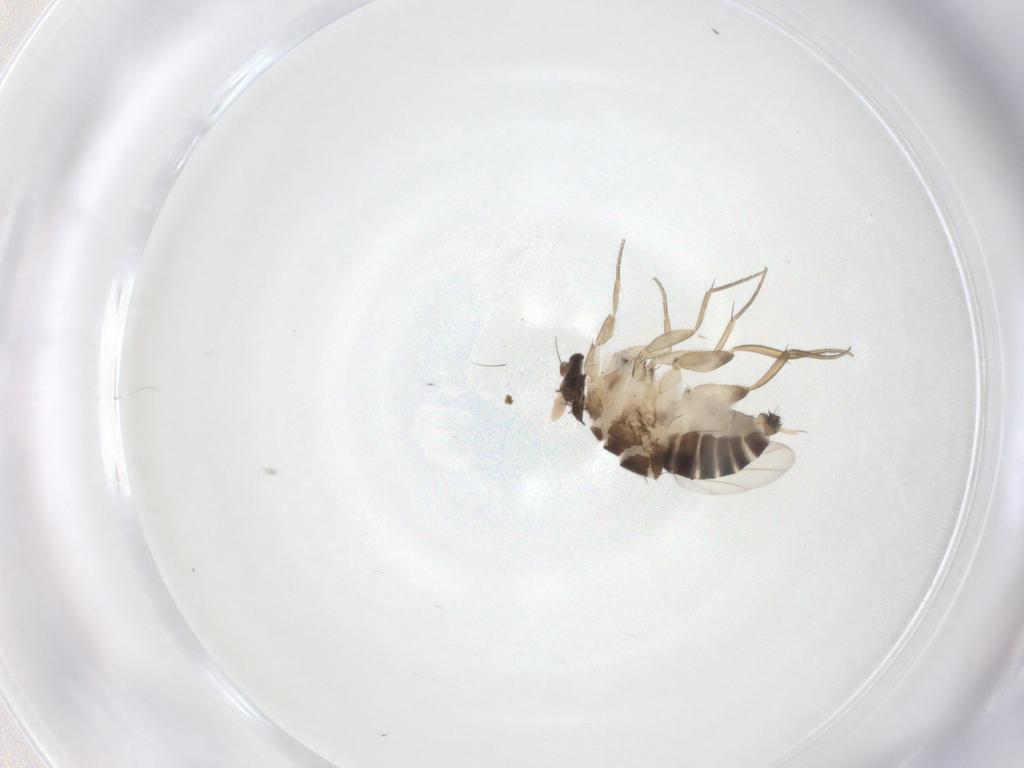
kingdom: Animalia
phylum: Arthropoda
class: Insecta
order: Diptera
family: Phoridae
